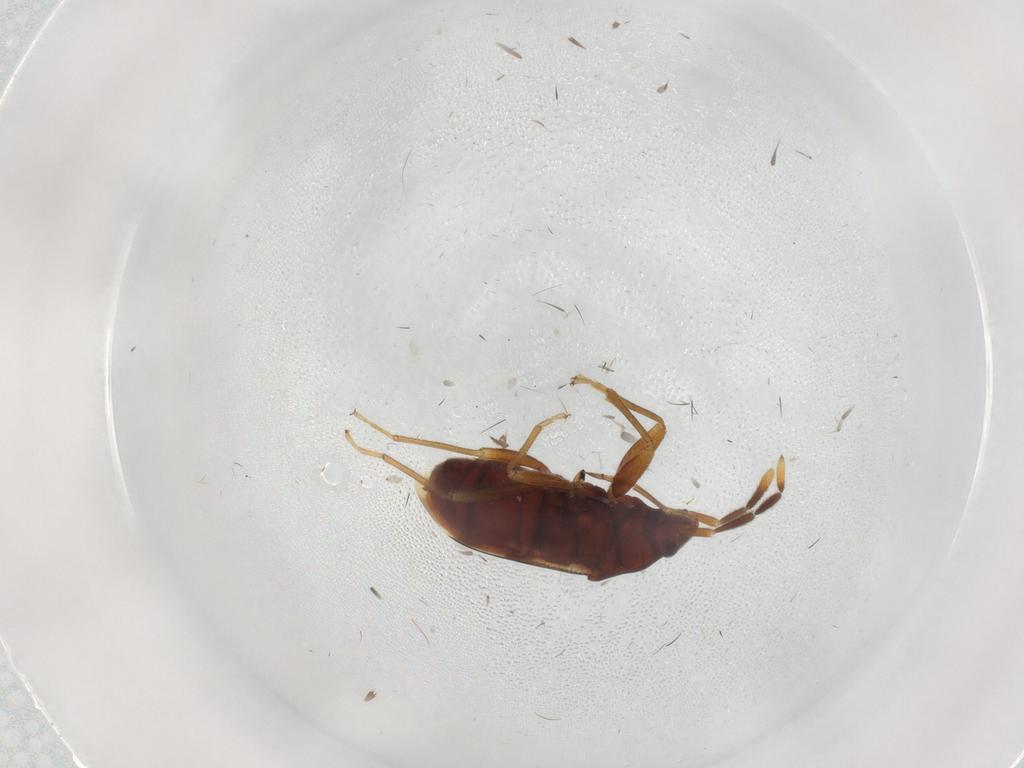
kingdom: Animalia
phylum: Arthropoda
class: Insecta
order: Hemiptera
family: Rhyparochromidae
